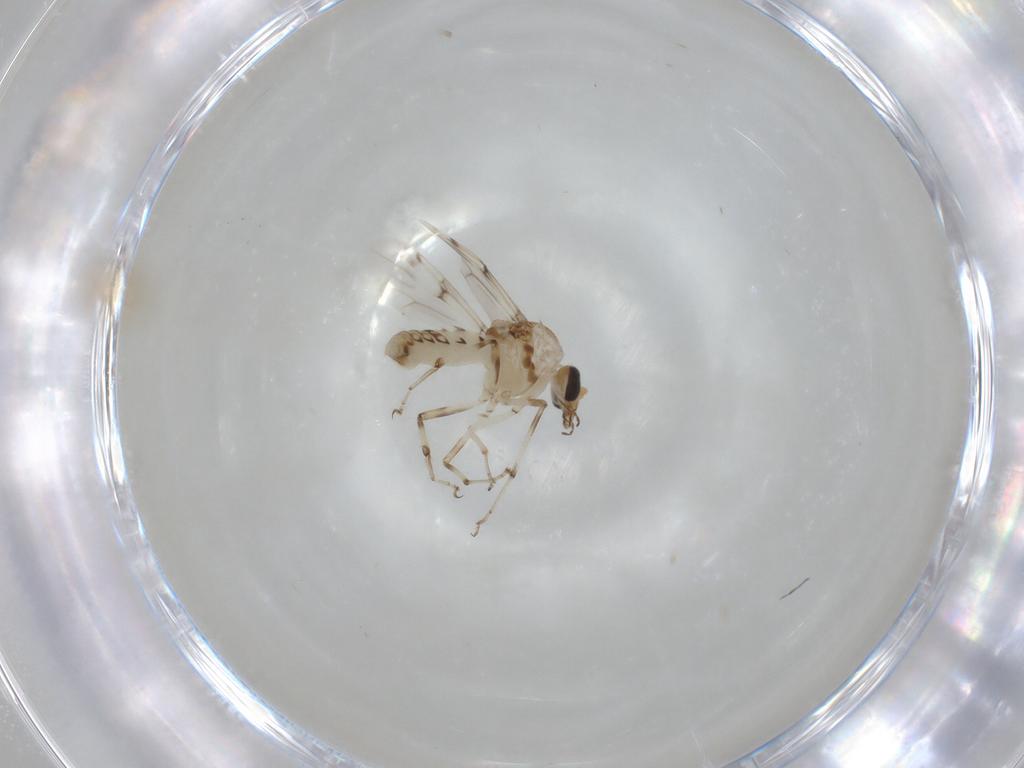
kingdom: Animalia
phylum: Arthropoda
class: Insecta
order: Diptera
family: Ceratopogonidae
